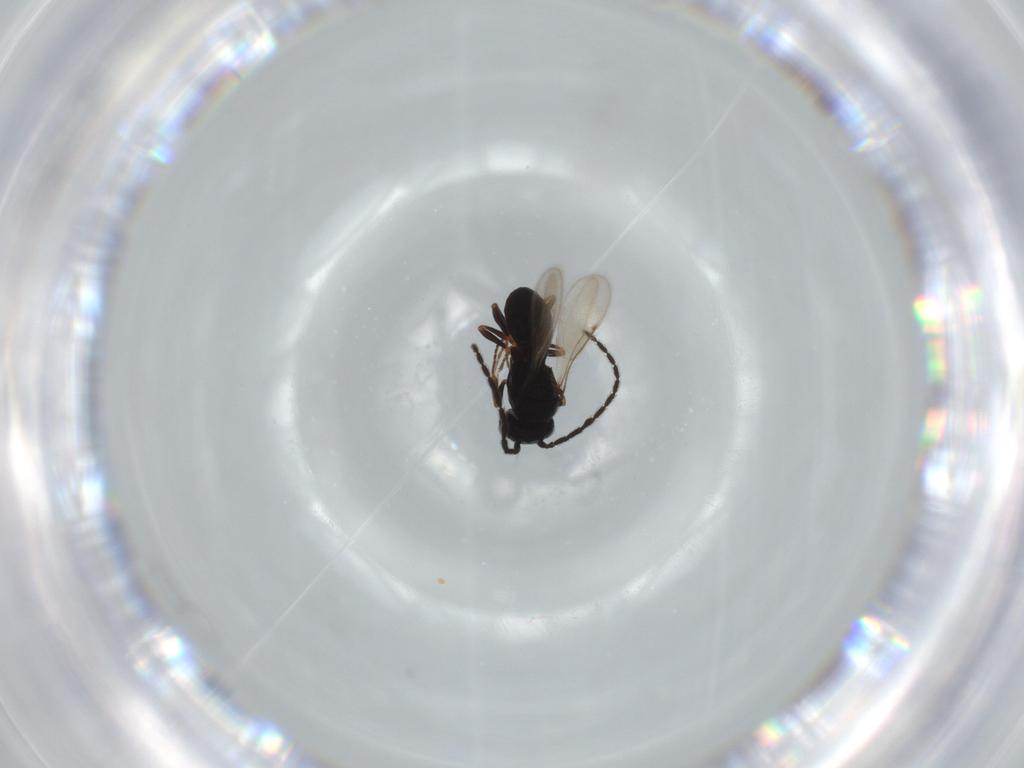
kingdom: Animalia
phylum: Arthropoda
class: Insecta
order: Hymenoptera
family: Scelionidae
